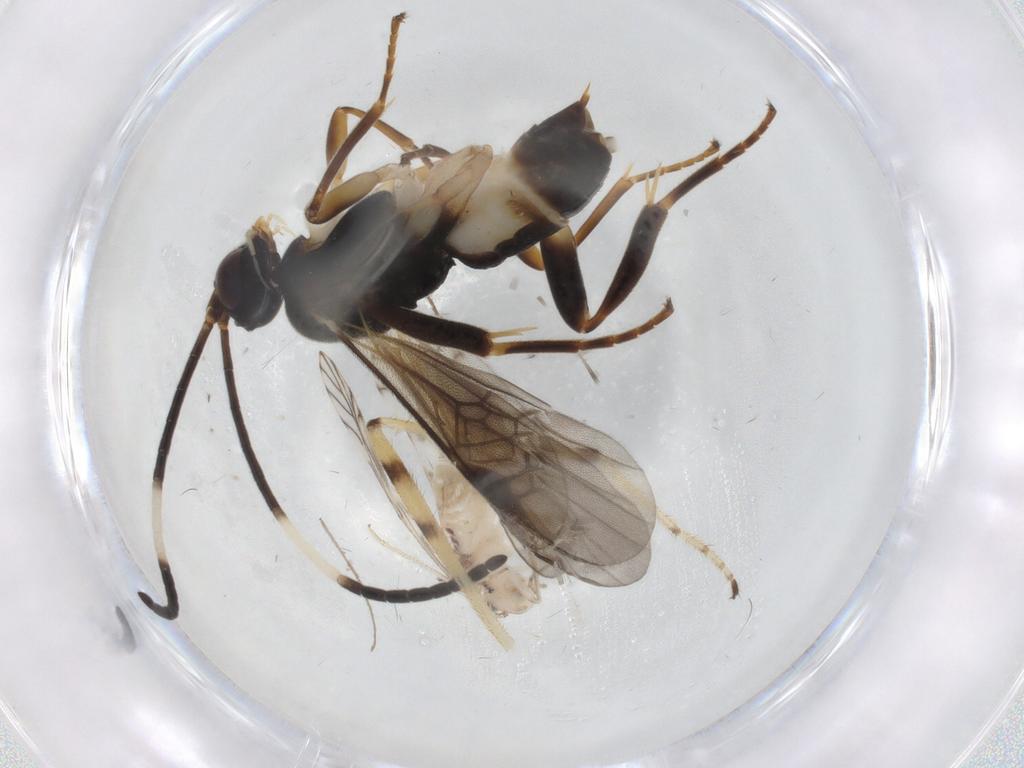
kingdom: Animalia
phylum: Arthropoda
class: Insecta
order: Hymenoptera
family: Braconidae
